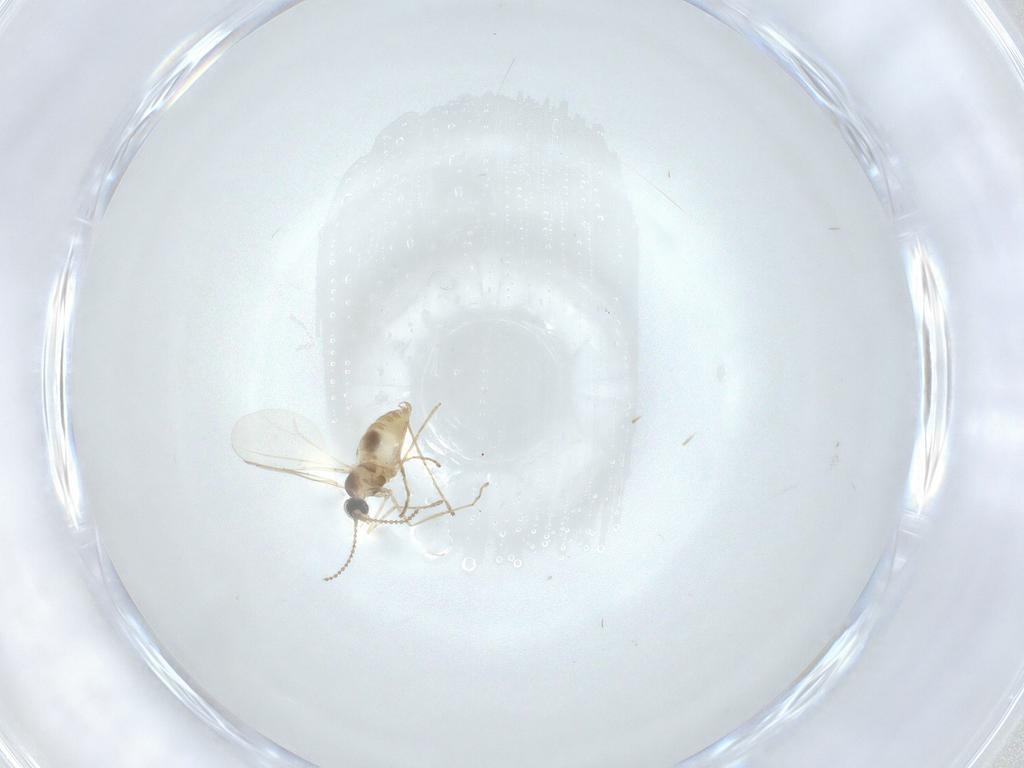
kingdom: Animalia
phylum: Arthropoda
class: Insecta
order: Diptera
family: Cecidomyiidae
